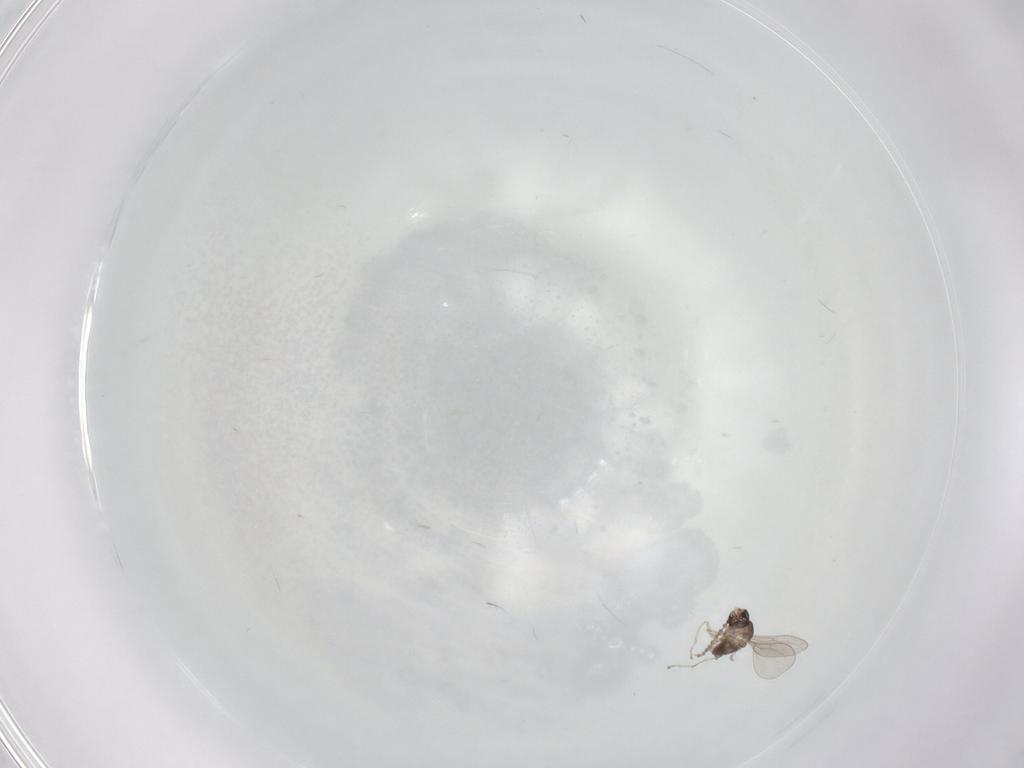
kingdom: Animalia
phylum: Arthropoda
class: Insecta
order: Diptera
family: Cecidomyiidae
